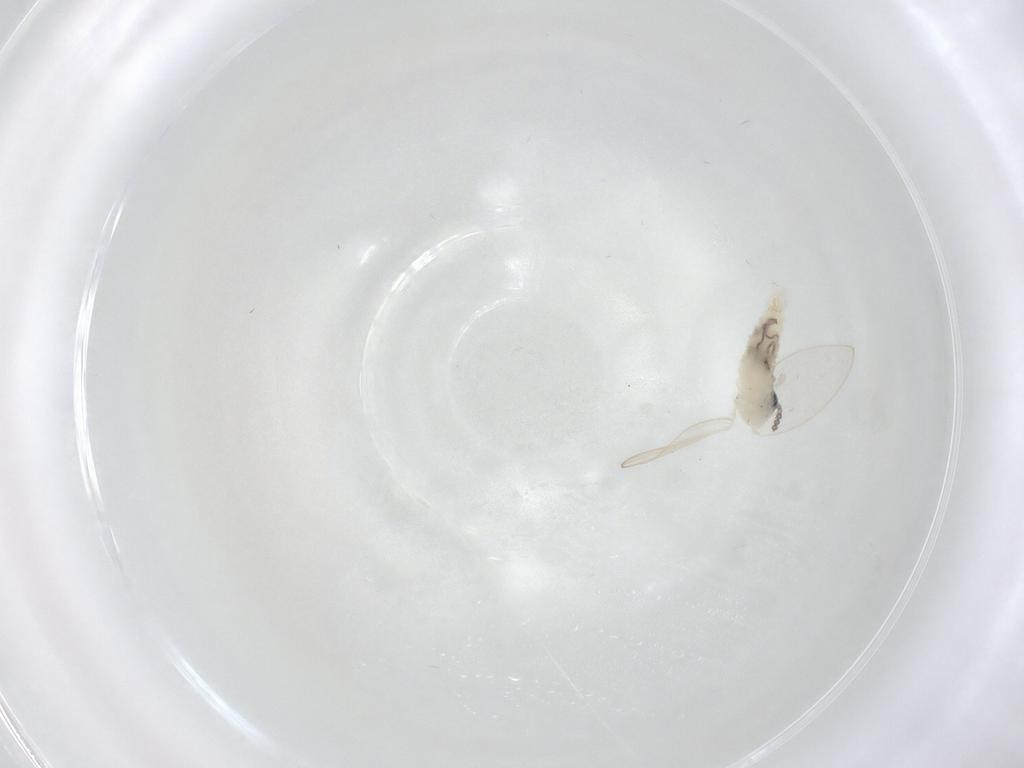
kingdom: Animalia
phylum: Arthropoda
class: Insecta
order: Diptera
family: Psychodidae
